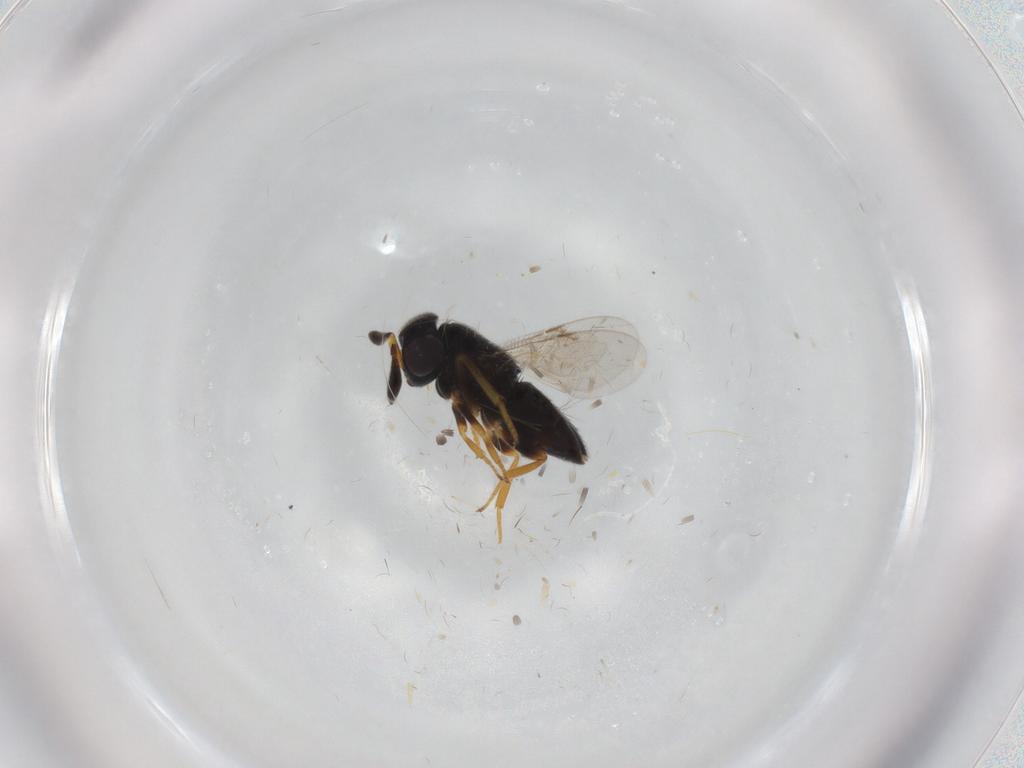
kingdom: Animalia
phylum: Arthropoda
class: Insecta
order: Hymenoptera
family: Encyrtidae
